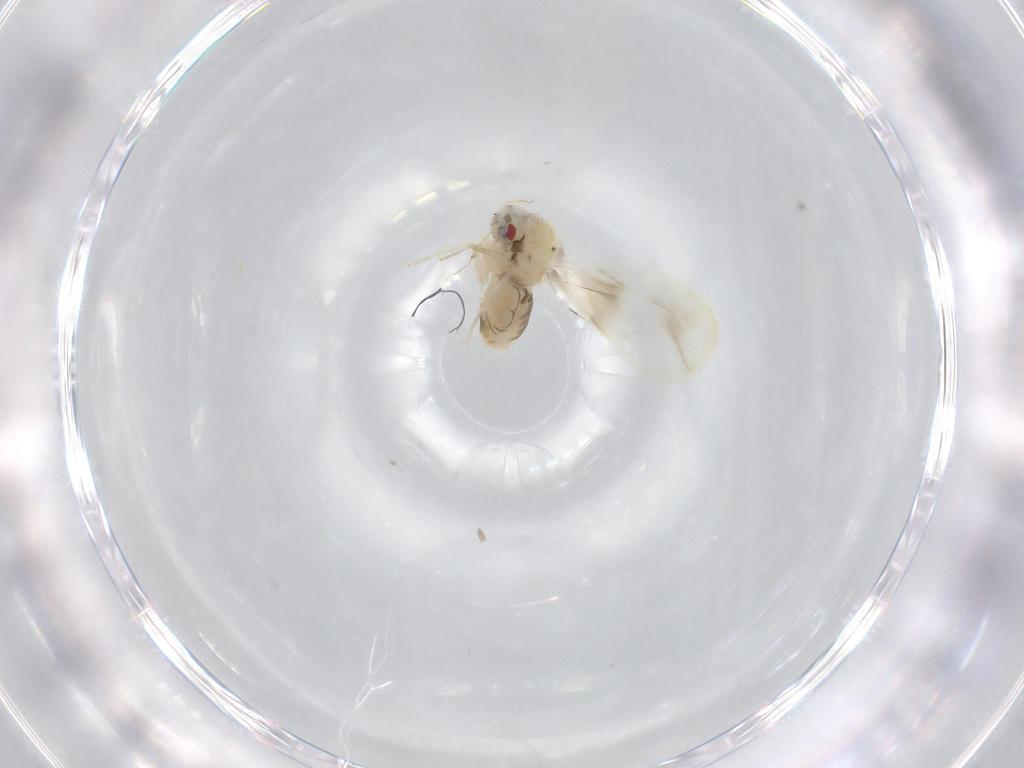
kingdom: Animalia
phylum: Arthropoda
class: Insecta
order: Hemiptera
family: Aleyrodidae
